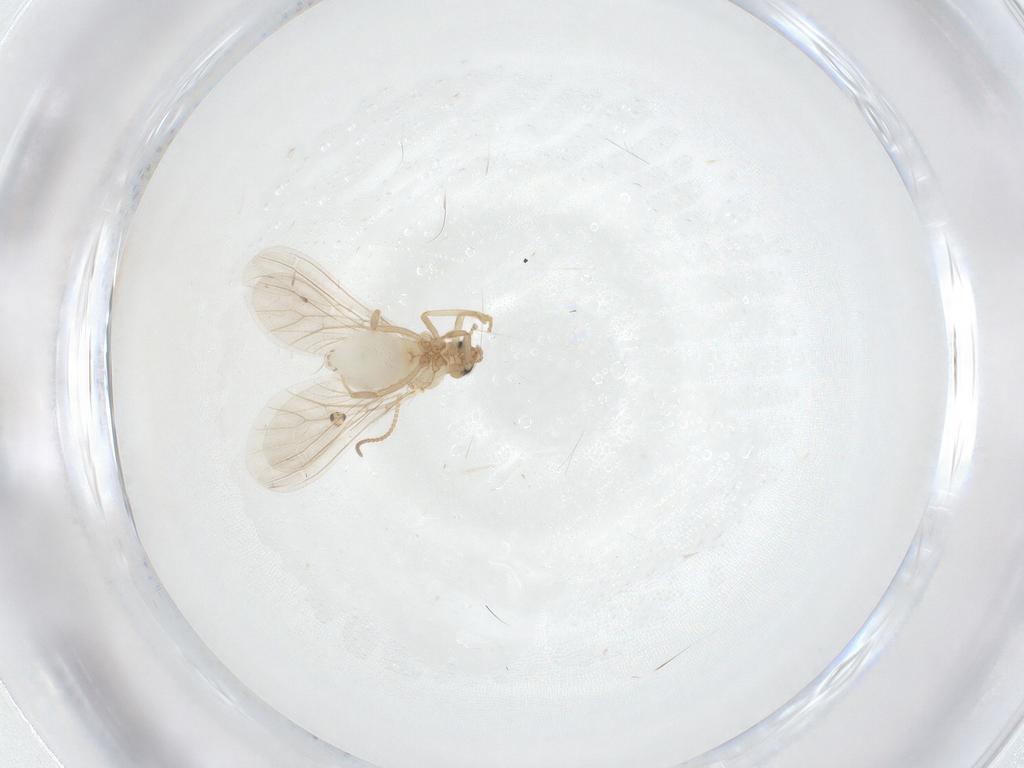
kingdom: Animalia
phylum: Arthropoda
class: Insecta
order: Neuroptera
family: Coniopterygidae
